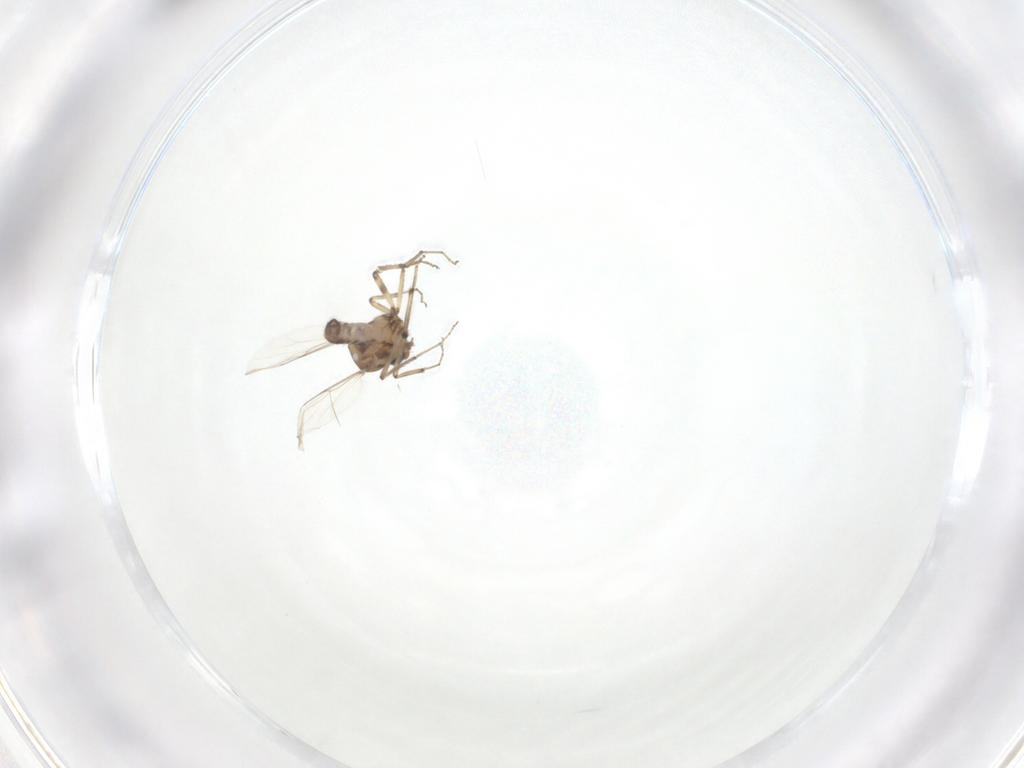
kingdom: Animalia
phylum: Arthropoda
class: Insecta
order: Diptera
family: Ceratopogonidae
